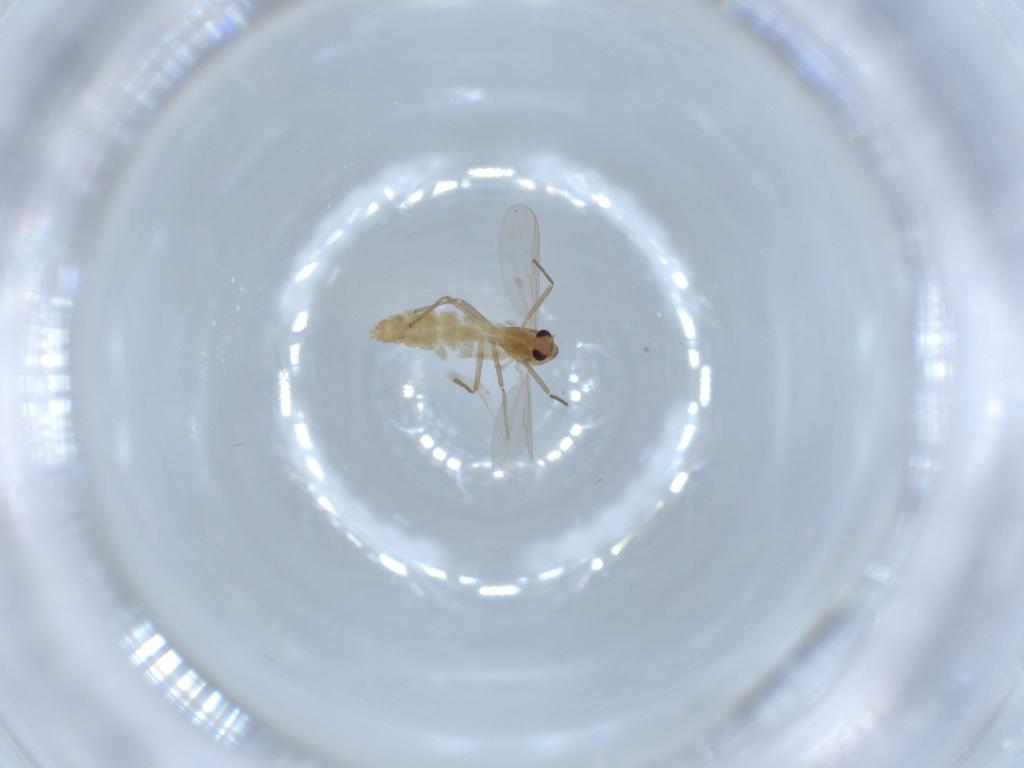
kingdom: Animalia
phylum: Arthropoda
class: Insecta
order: Diptera
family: Chironomidae
